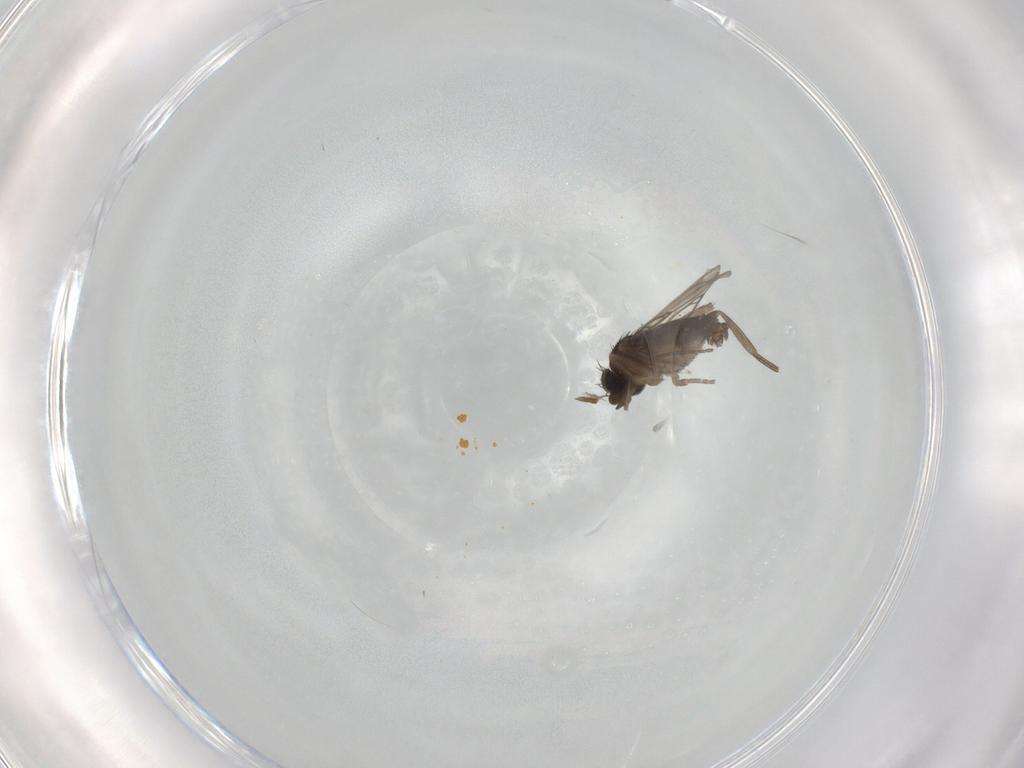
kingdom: Animalia
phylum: Arthropoda
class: Insecta
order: Diptera
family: Phoridae
